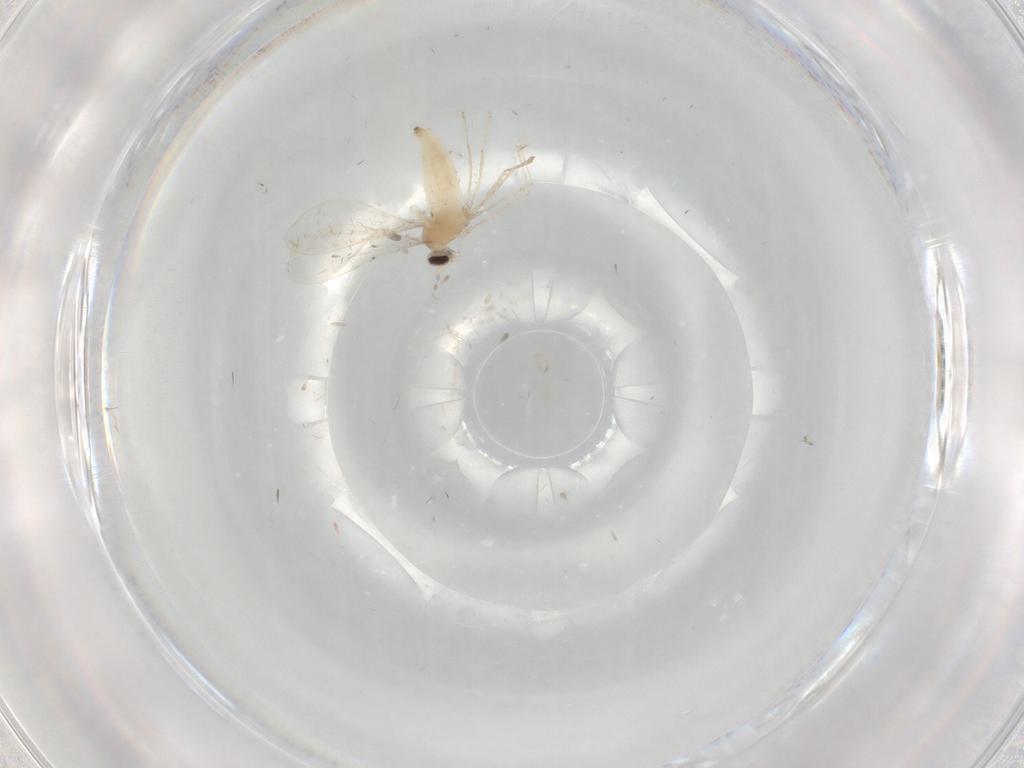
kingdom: Animalia
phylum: Arthropoda
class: Insecta
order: Diptera
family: Cecidomyiidae
